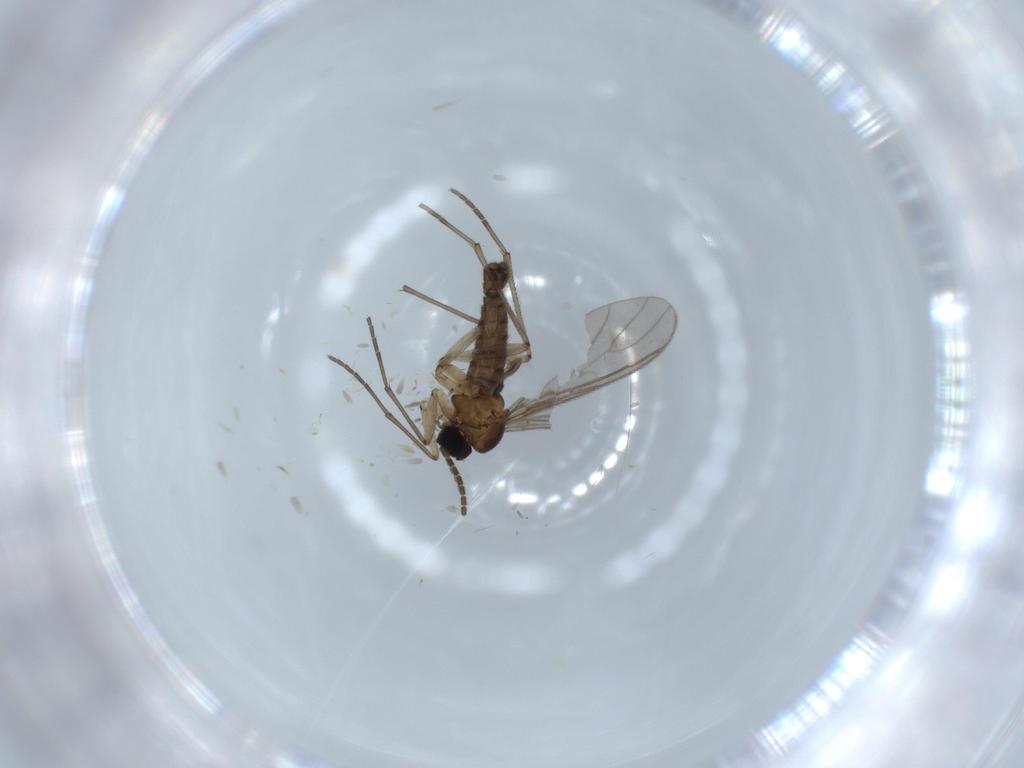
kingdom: Animalia
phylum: Arthropoda
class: Insecta
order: Diptera
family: Sciaridae
